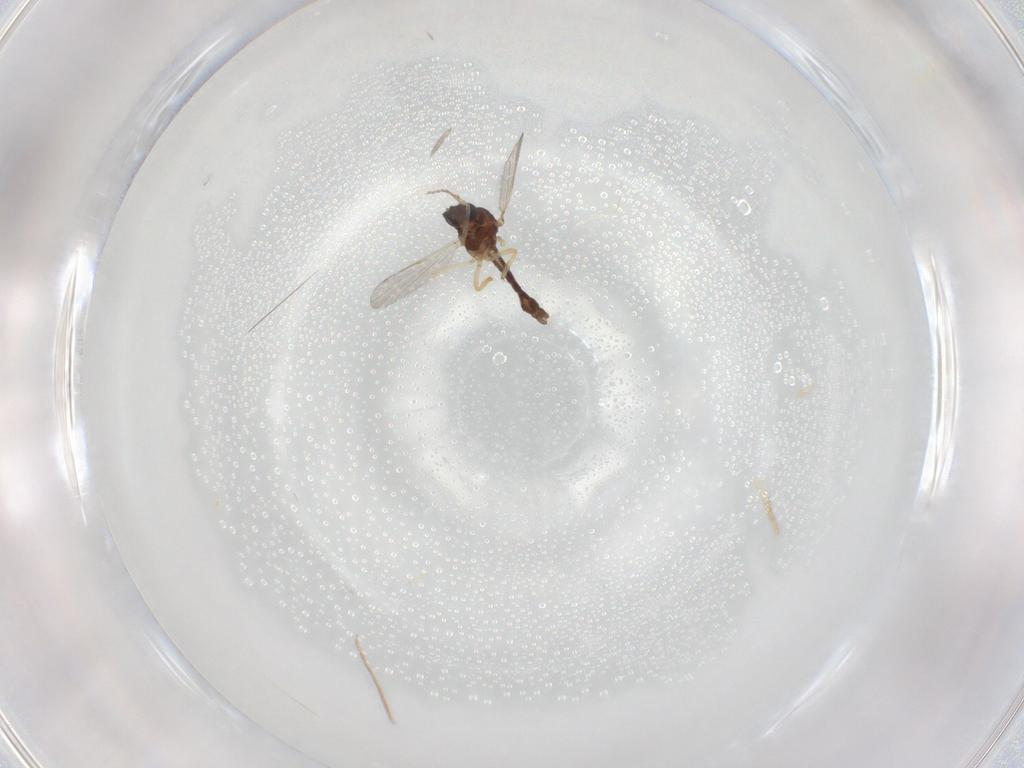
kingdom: Animalia
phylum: Arthropoda
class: Insecta
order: Diptera
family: Ceratopogonidae
